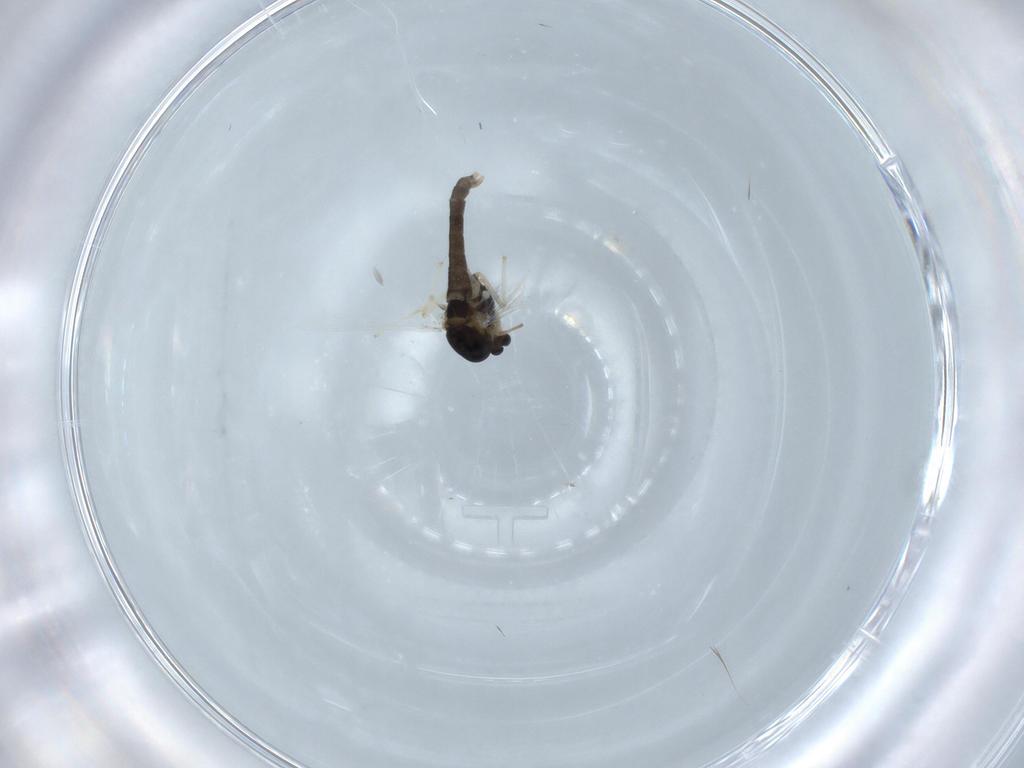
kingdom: Animalia
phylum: Arthropoda
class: Insecta
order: Diptera
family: Chironomidae
